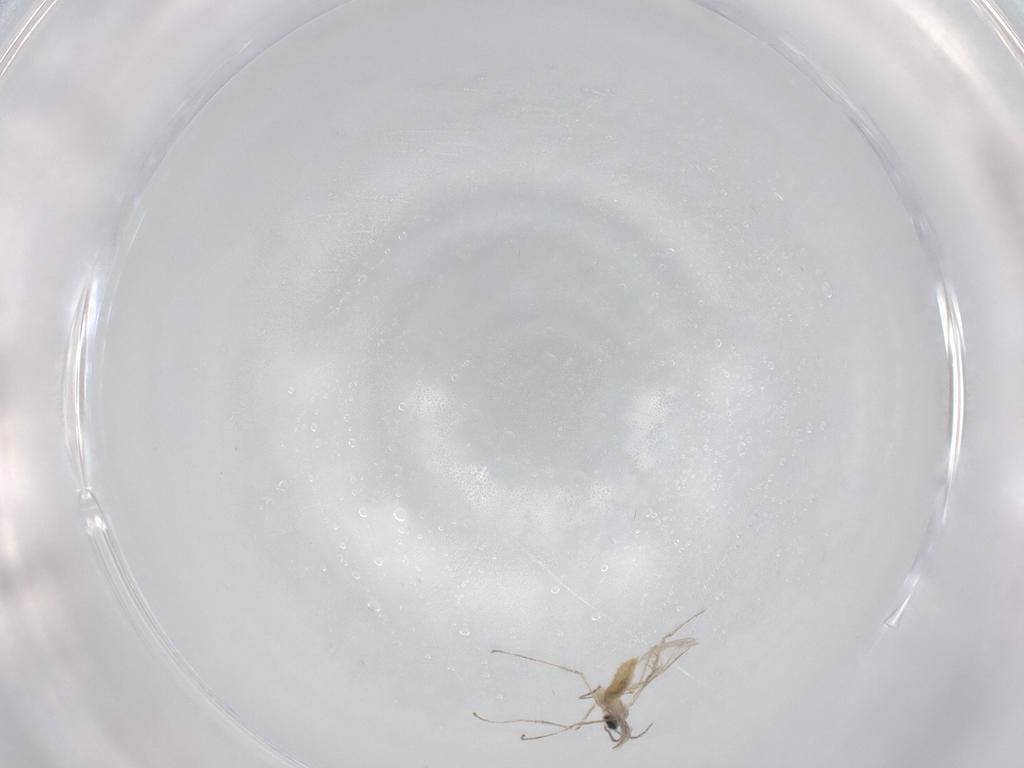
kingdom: Animalia
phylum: Arthropoda
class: Insecta
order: Diptera
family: Cecidomyiidae
